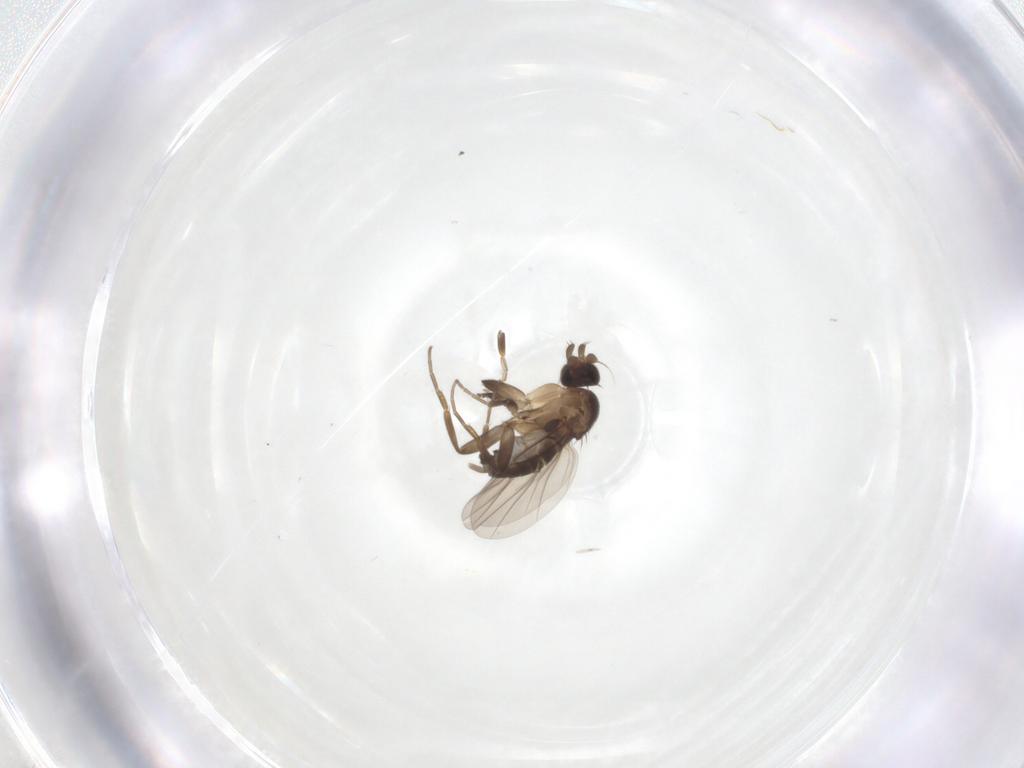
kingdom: Animalia
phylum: Arthropoda
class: Insecta
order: Diptera
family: Phoridae
